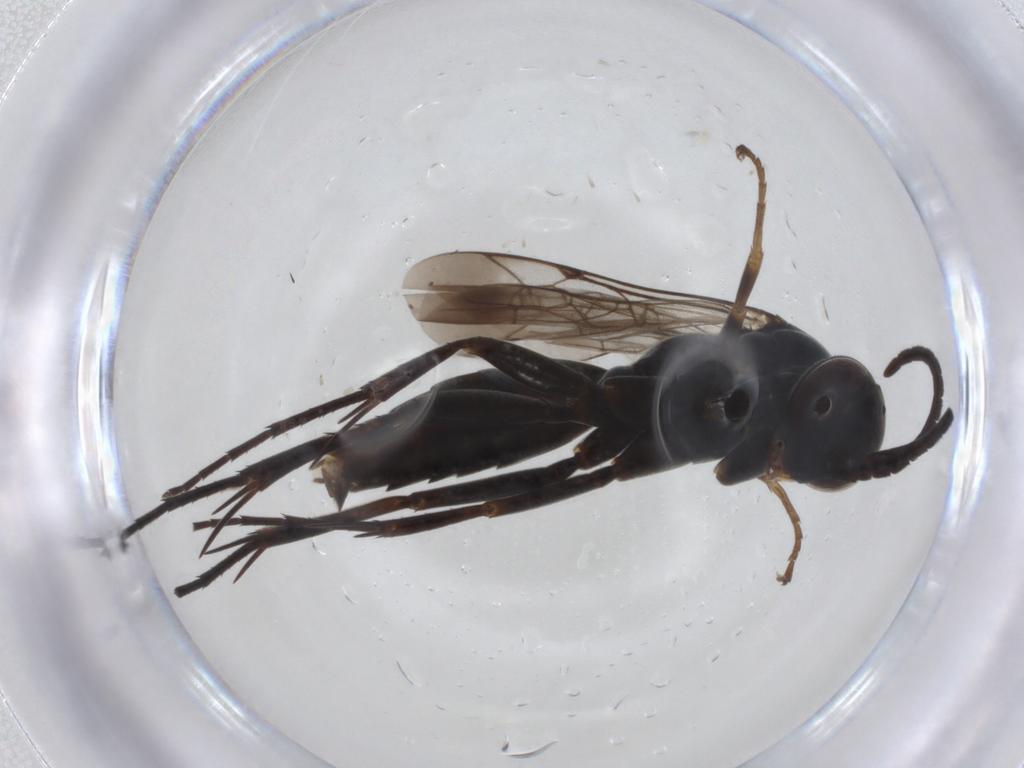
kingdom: Animalia
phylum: Arthropoda
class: Insecta
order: Hymenoptera
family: Pompilidae
